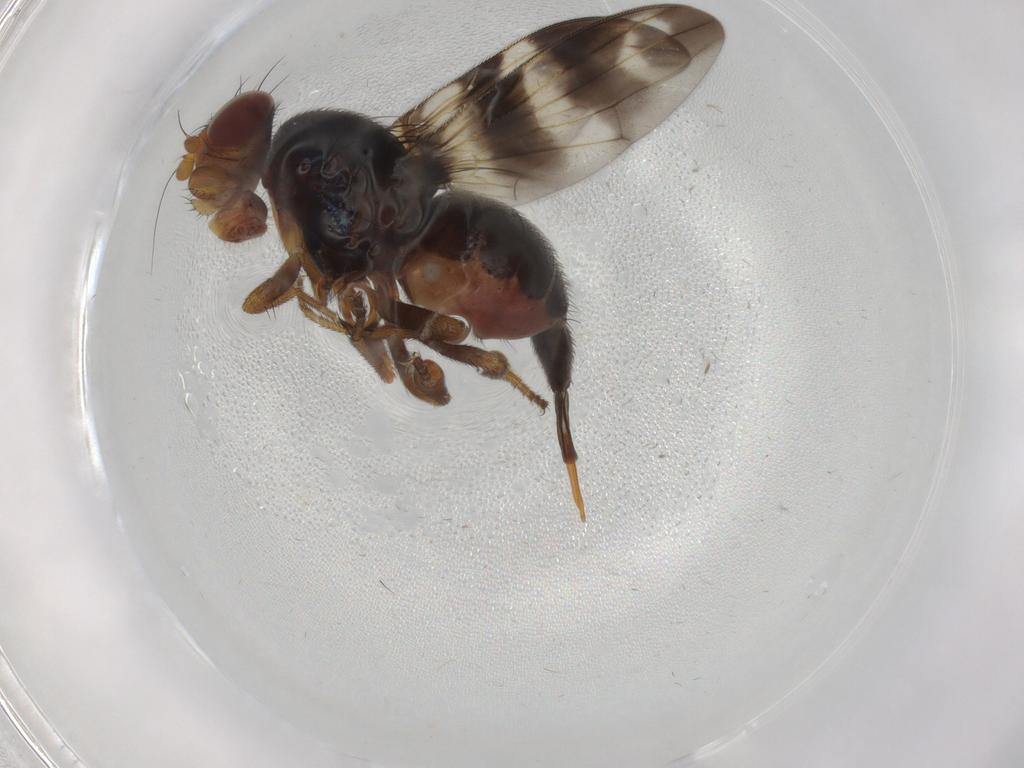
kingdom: Animalia
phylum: Arthropoda
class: Insecta
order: Diptera
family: Ulidiidae
